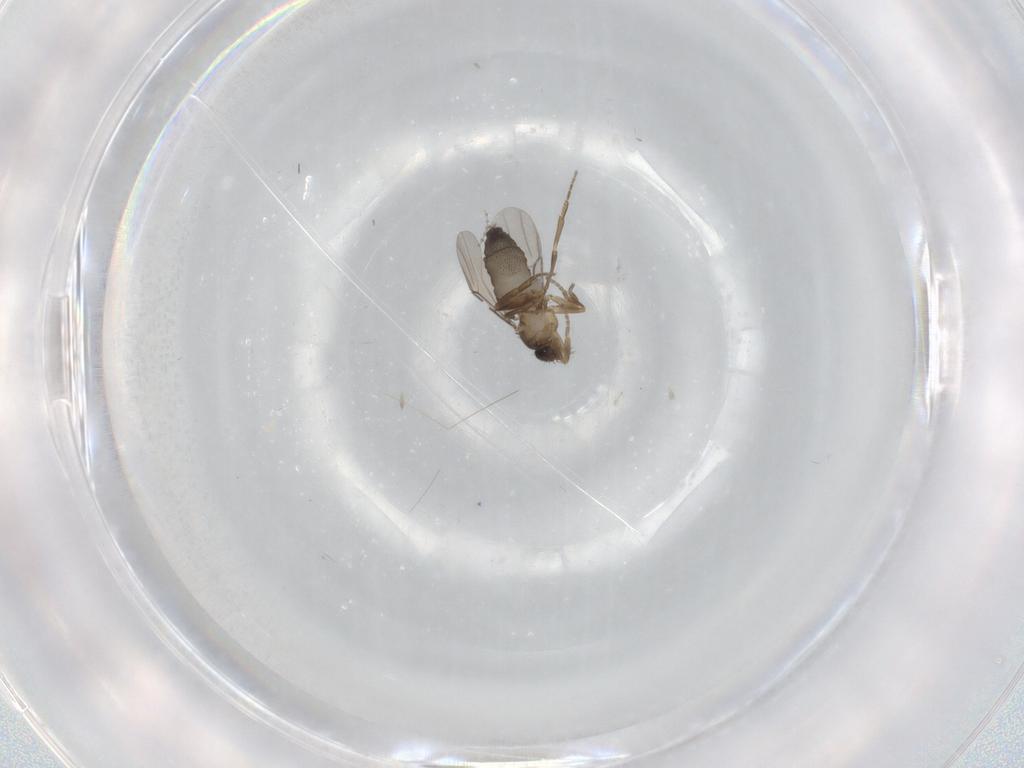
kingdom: Animalia
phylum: Arthropoda
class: Insecta
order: Diptera
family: Phoridae
